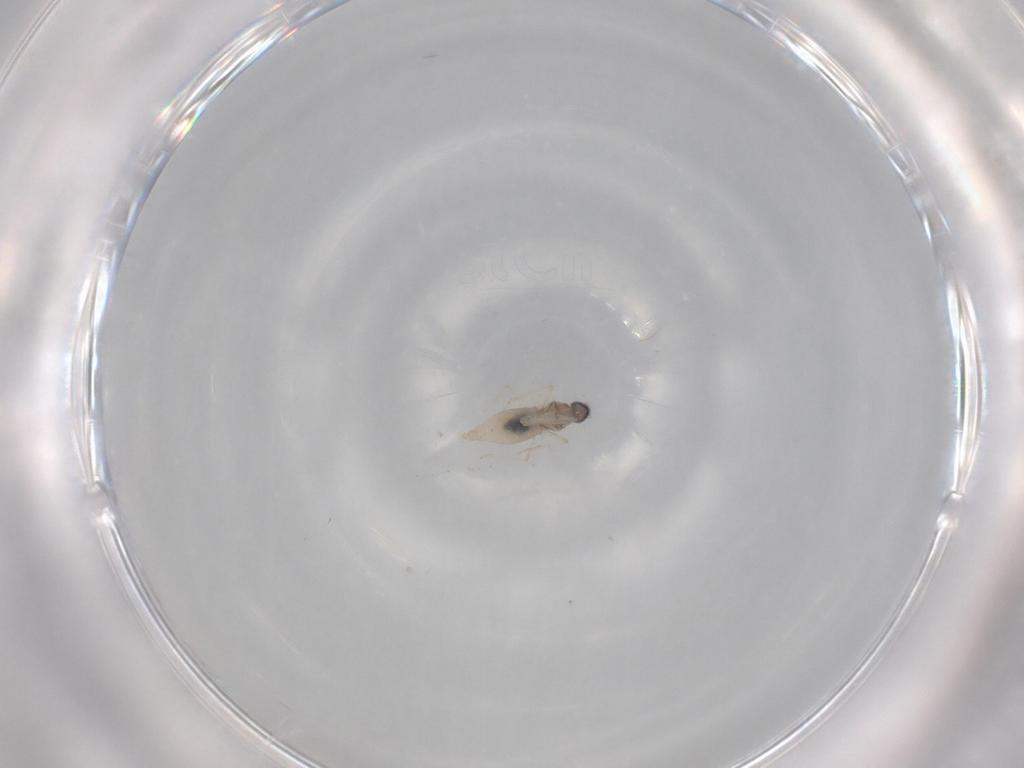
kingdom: Animalia
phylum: Arthropoda
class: Insecta
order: Diptera
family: Cecidomyiidae
